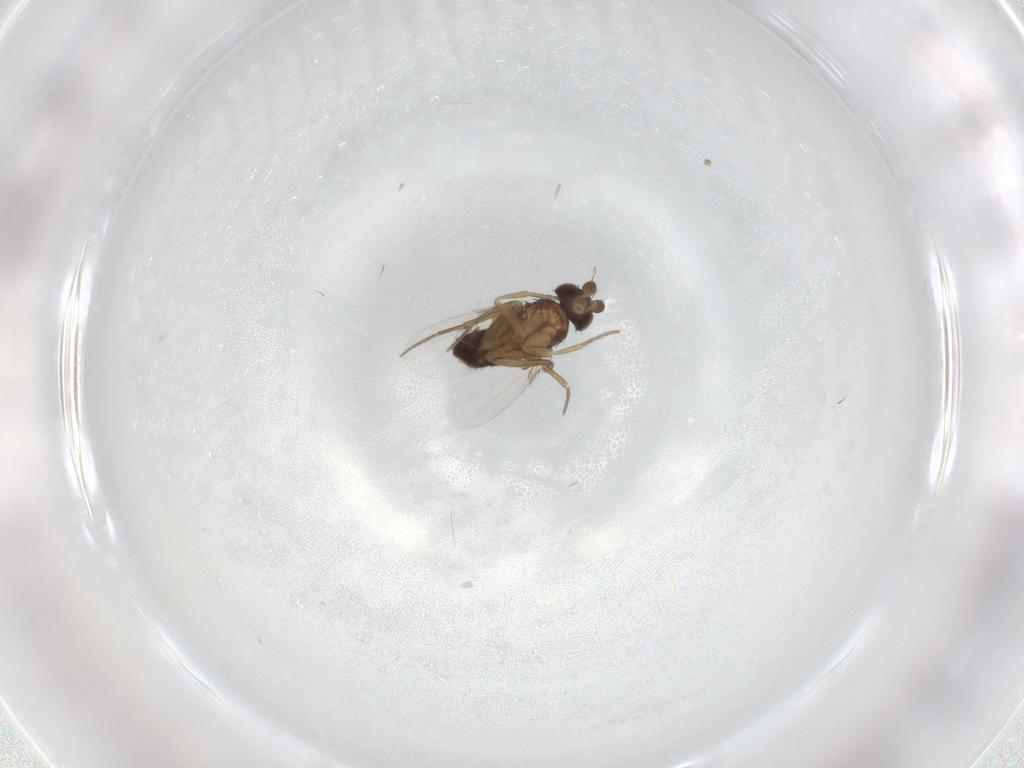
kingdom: Animalia
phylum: Arthropoda
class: Insecta
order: Diptera
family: Phoridae
